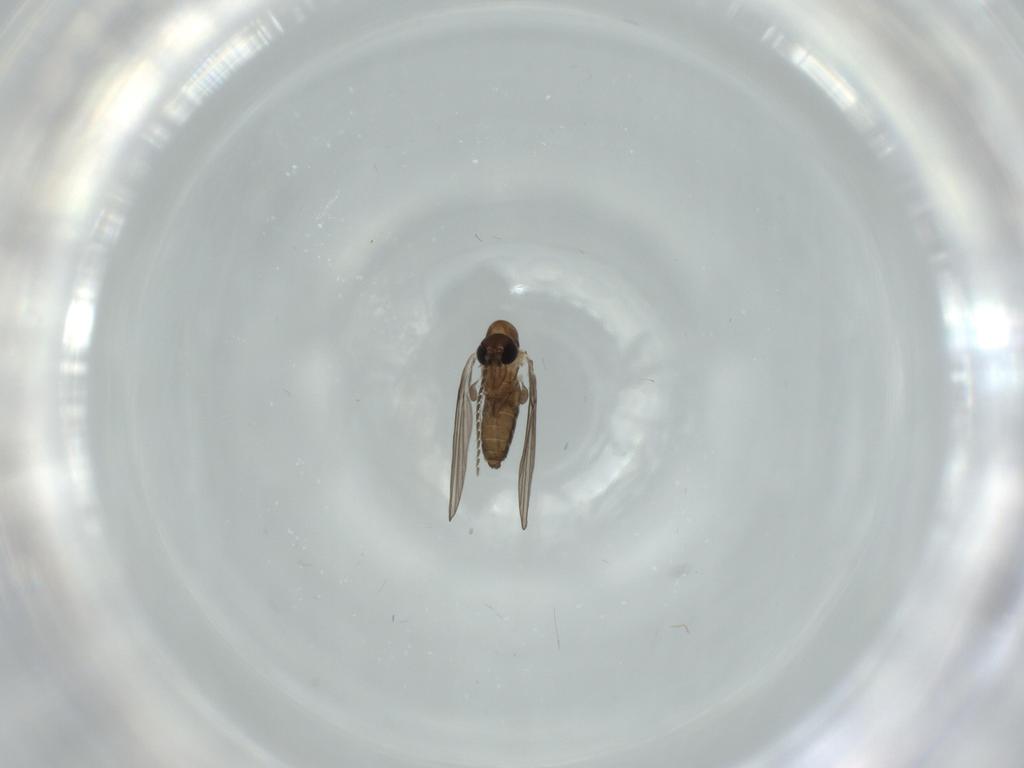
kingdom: Animalia
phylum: Arthropoda
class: Insecta
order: Diptera
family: Psychodidae
